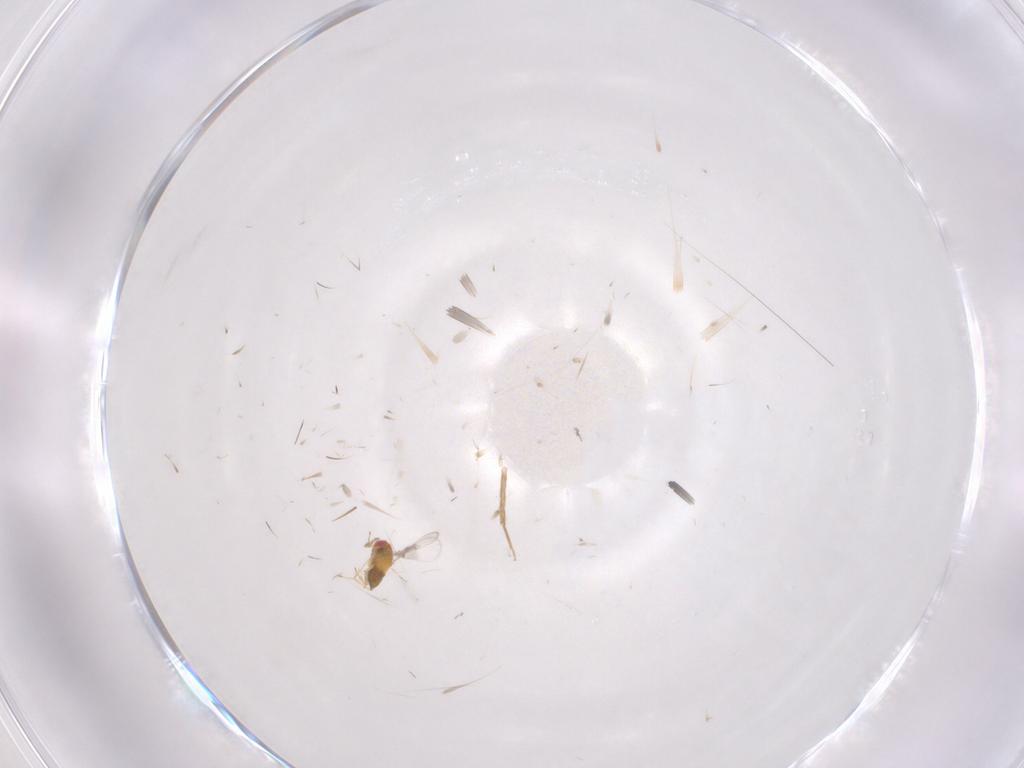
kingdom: Animalia
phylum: Arthropoda
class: Insecta
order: Hymenoptera
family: Trichogrammatidae
